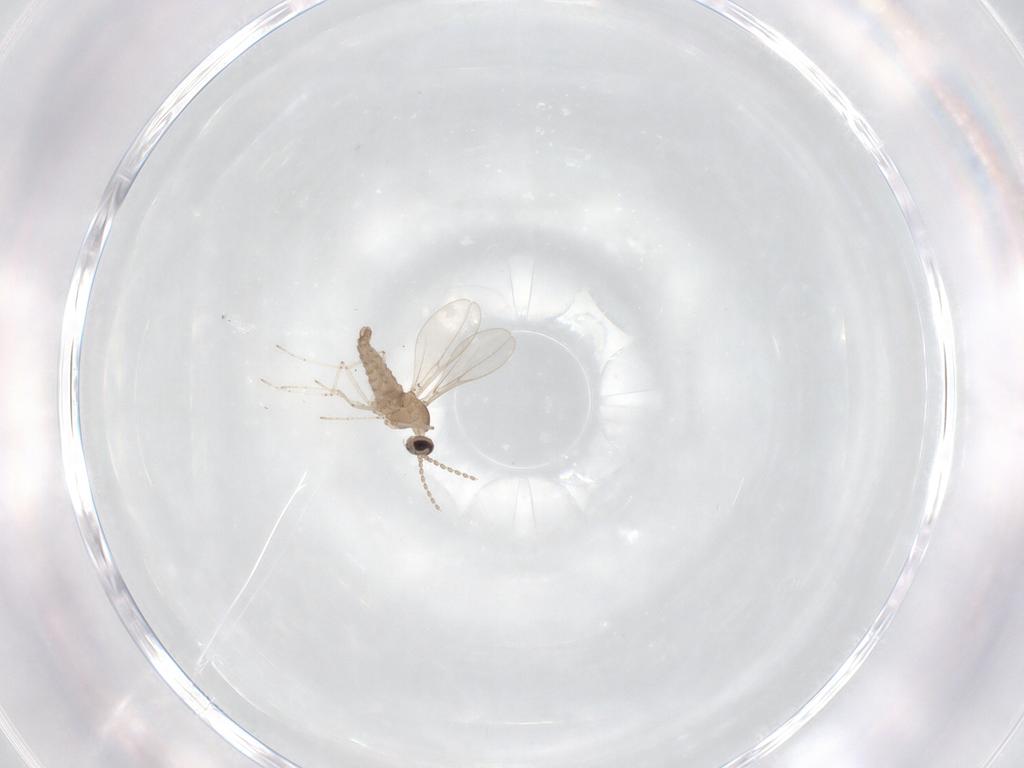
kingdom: Animalia
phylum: Arthropoda
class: Insecta
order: Diptera
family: Cecidomyiidae
